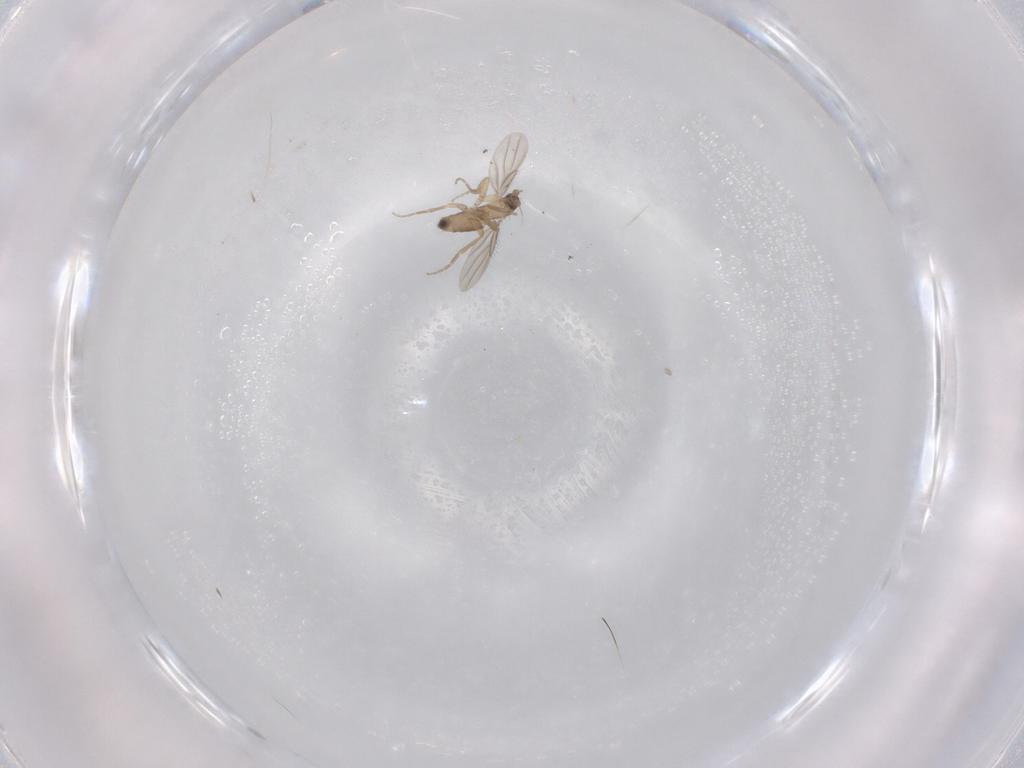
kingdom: Animalia
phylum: Arthropoda
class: Insecta
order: Diptera
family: Phoridae
